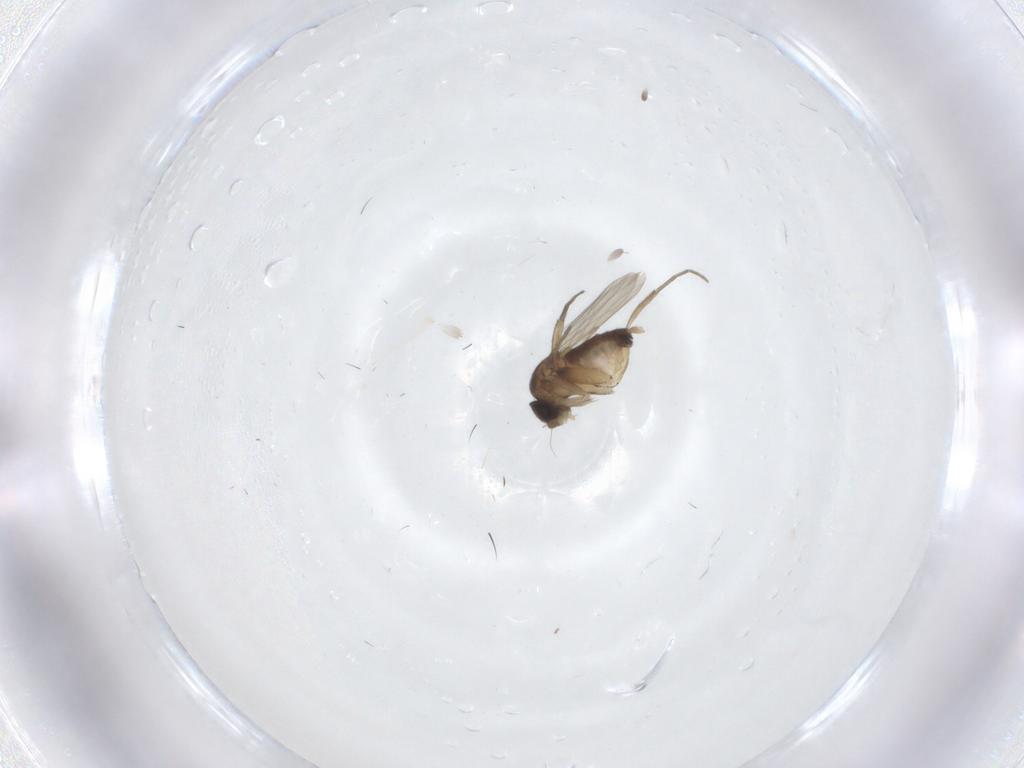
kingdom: Animalia
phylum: Arthropoda
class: Insecta
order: Diptera
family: Phoridae
